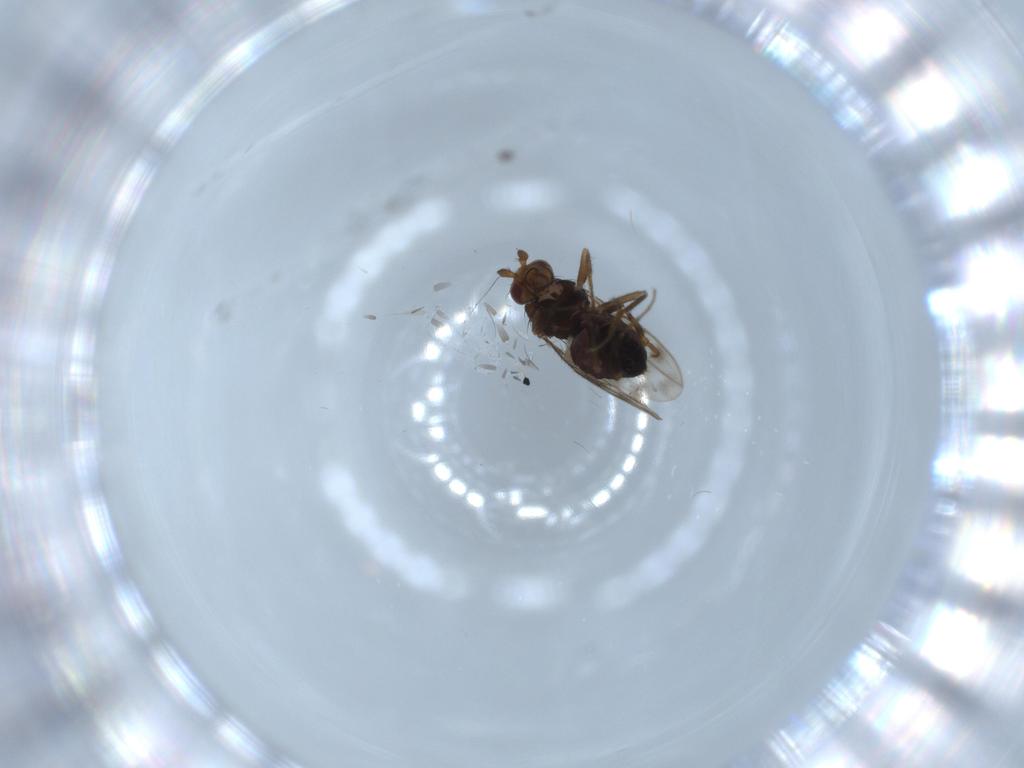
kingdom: Animalia
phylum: Arthropoda
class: Insecta
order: Diptera
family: Sphaeroceridae
